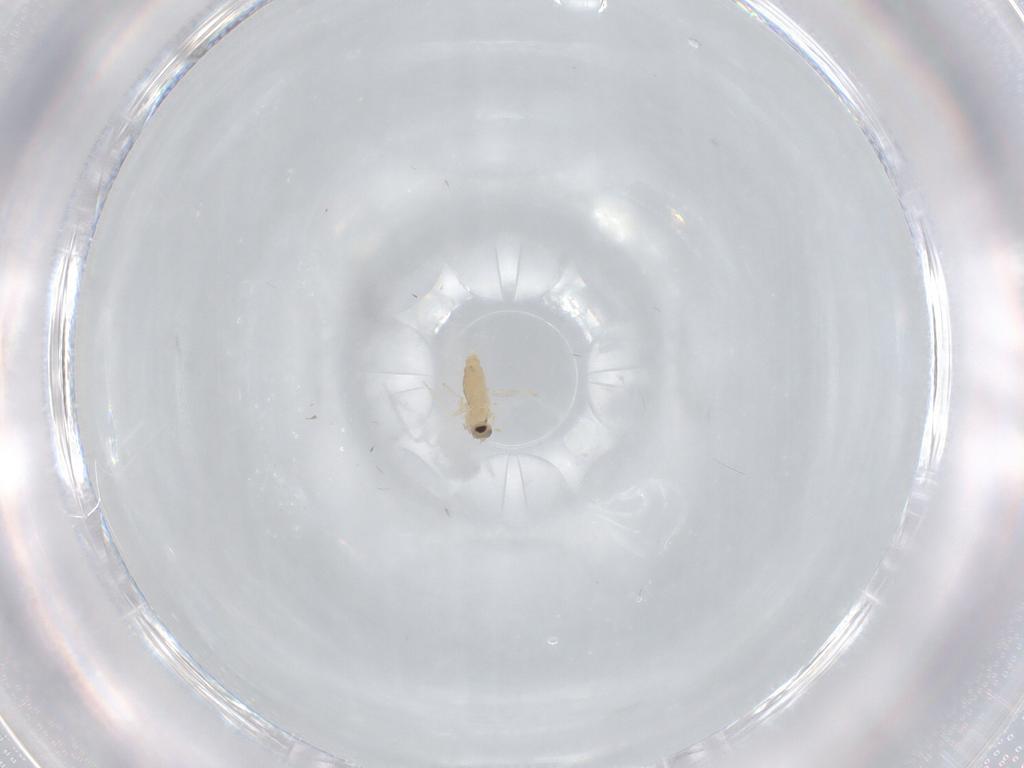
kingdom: Animalia
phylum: Arthropoda
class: Insecta
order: Diptera
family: Cecidomyiidae
